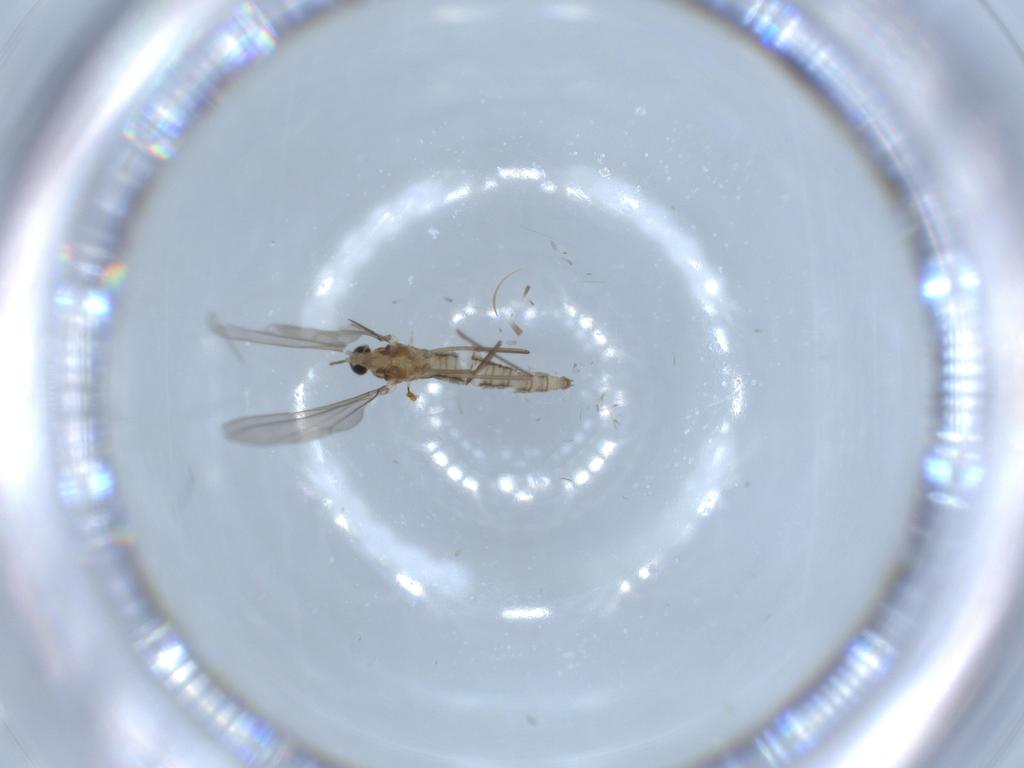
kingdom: Animalia
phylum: Arthropoda
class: Insecta
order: Diptera
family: Cecidomyiidae
